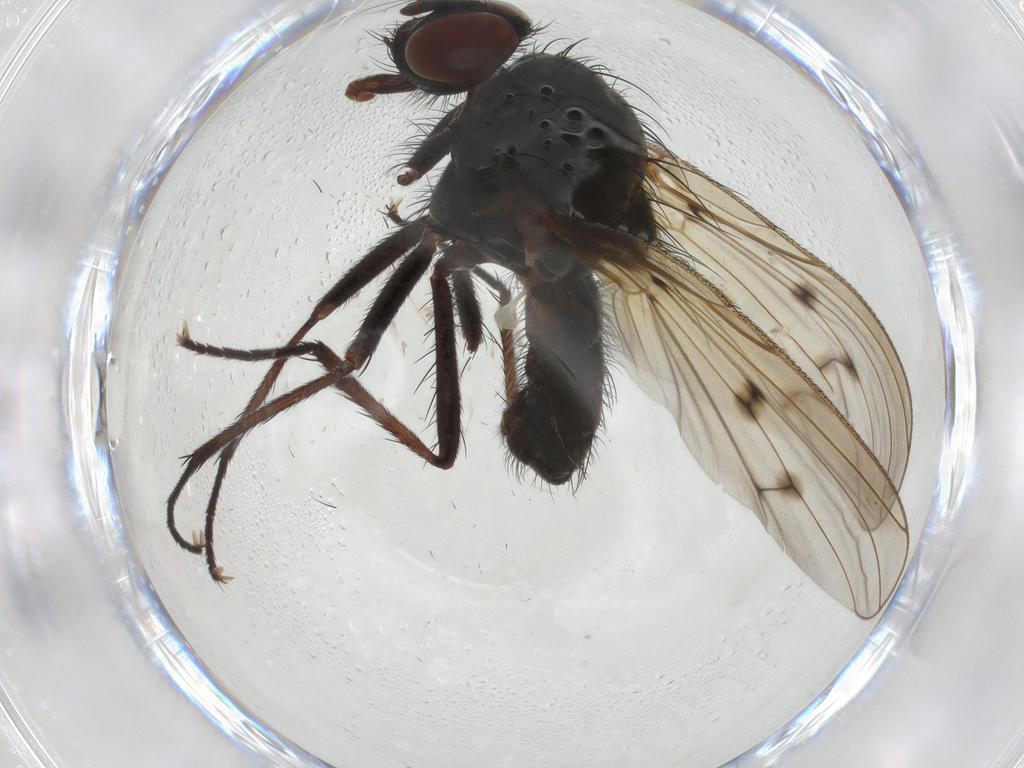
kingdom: Animalia
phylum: Arthropoda
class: Insecta
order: Diptera
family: Anthomyiidae
